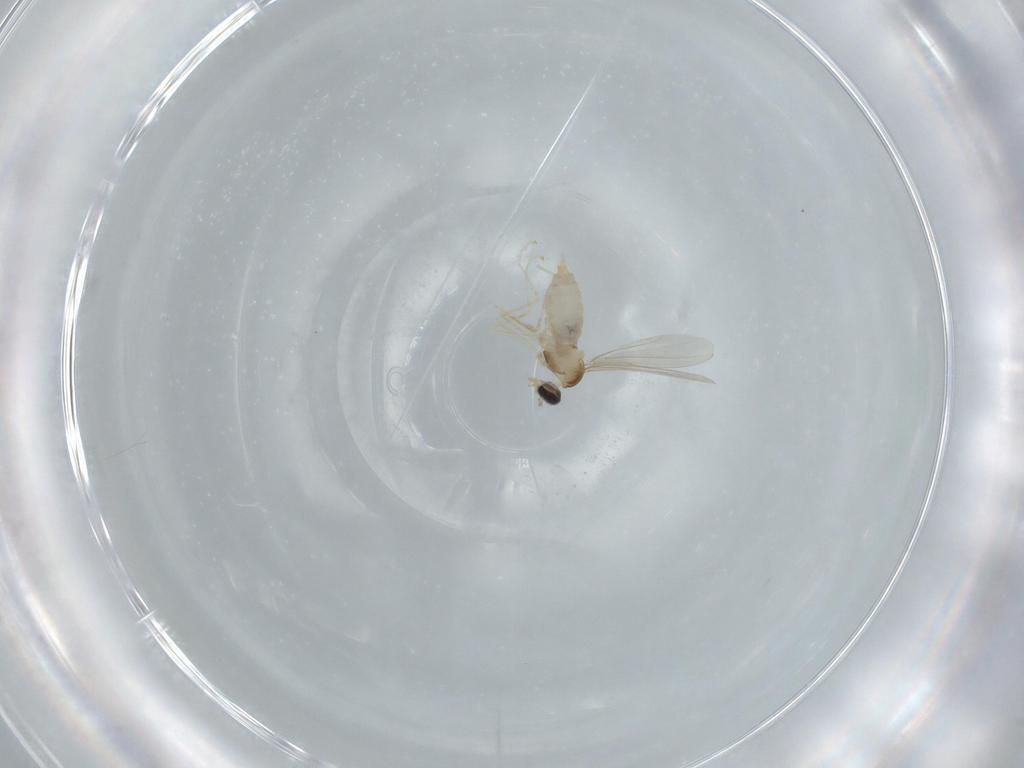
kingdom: Animalia
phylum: Arthropoda
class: Insecta
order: Diptera
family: Cecidomyiidae
